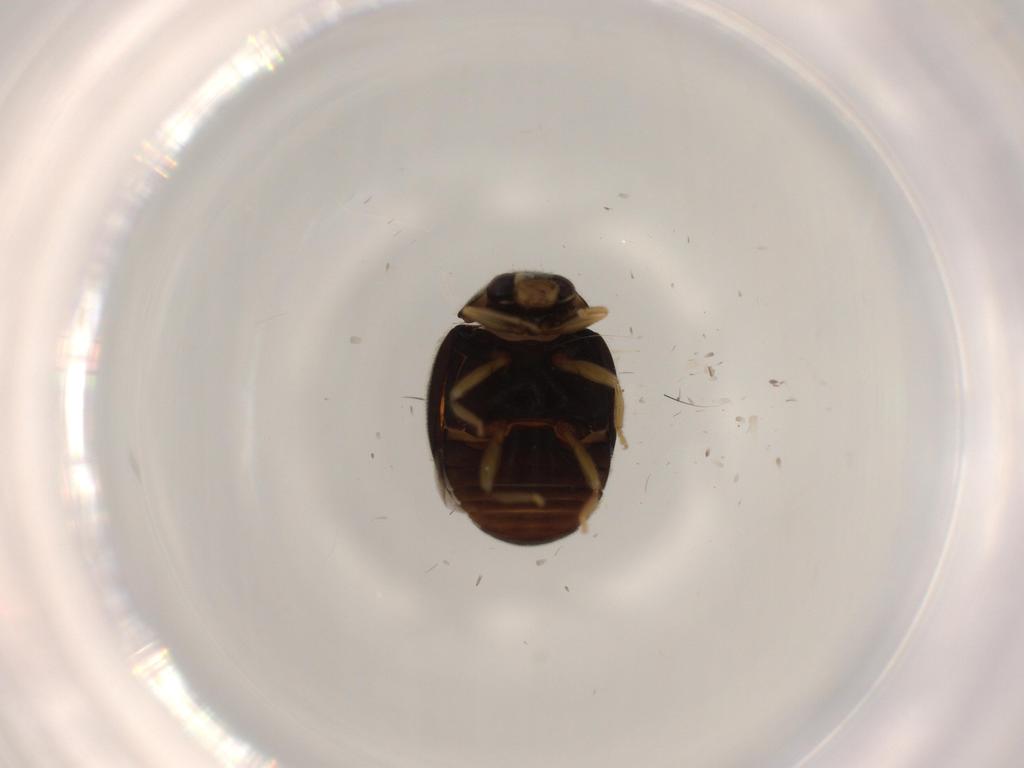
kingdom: Animalia
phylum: Arthropoda
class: Insecta
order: Coleoptera
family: Coccinellidae
